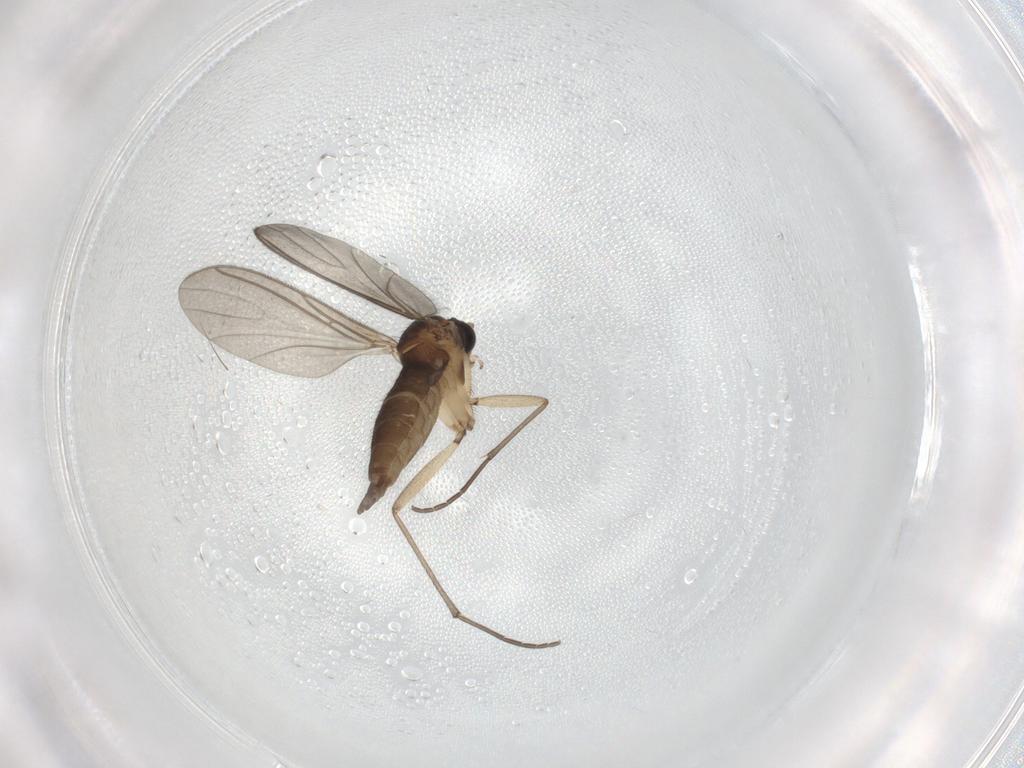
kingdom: Animalia
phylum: Arthropoda
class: Insecta
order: Diptera
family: Sciaridae
